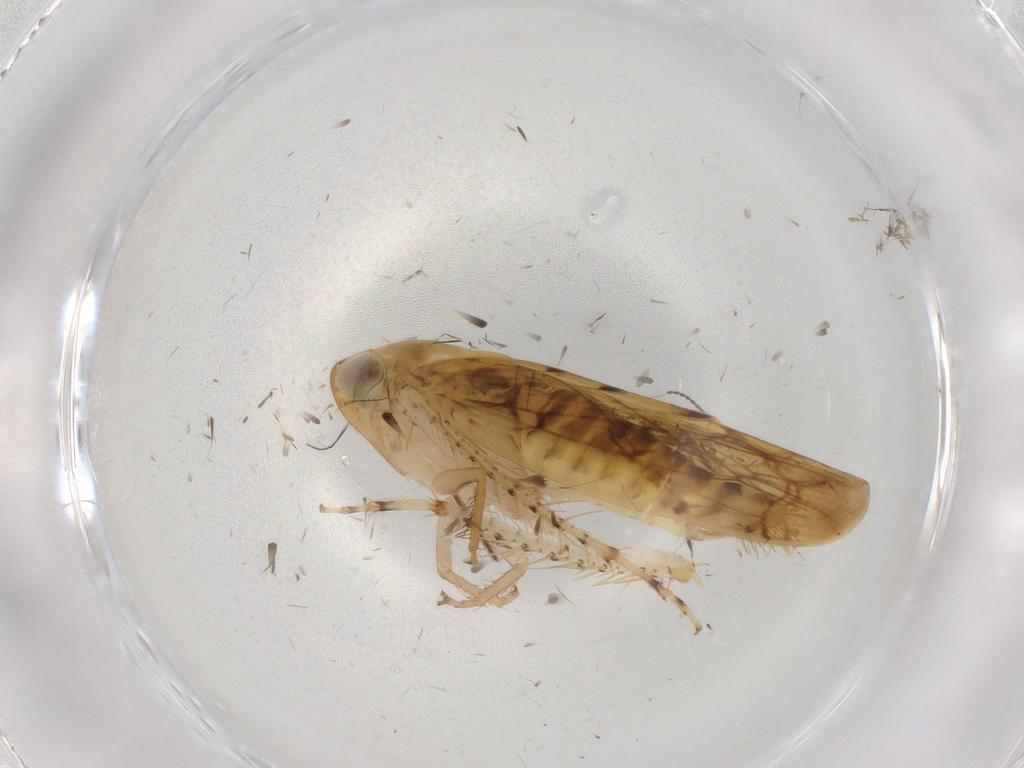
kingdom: Animalia
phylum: Arthropoda
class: Insecta
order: Hemiptera
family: Cicadellidae
